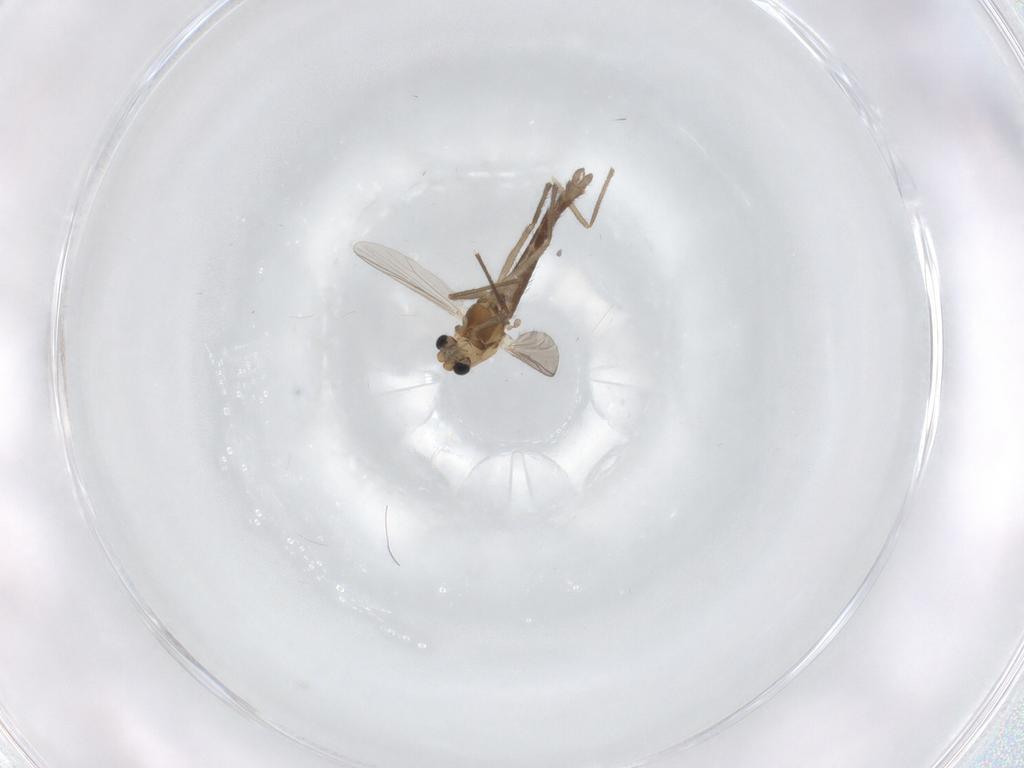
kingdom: Animalia
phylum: Arthropoda
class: Insecta
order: Diptera
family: Chironomidae
